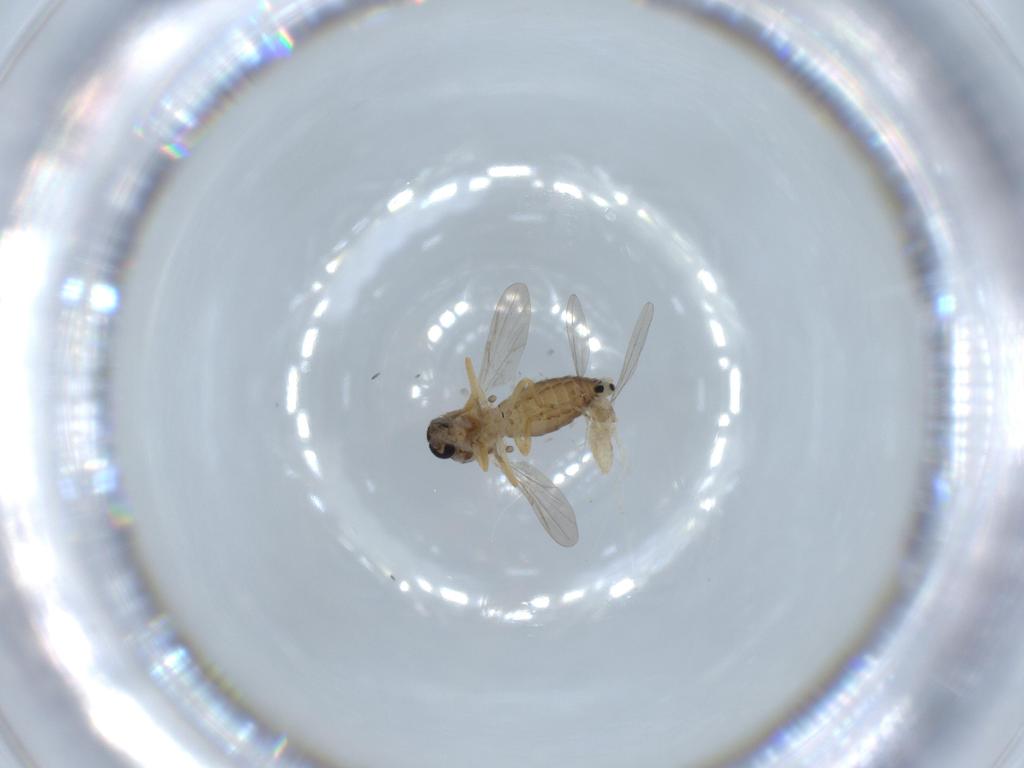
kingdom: Animalia
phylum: Arthropoda
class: Insecta
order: Diptera
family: Ceratopogonidae
